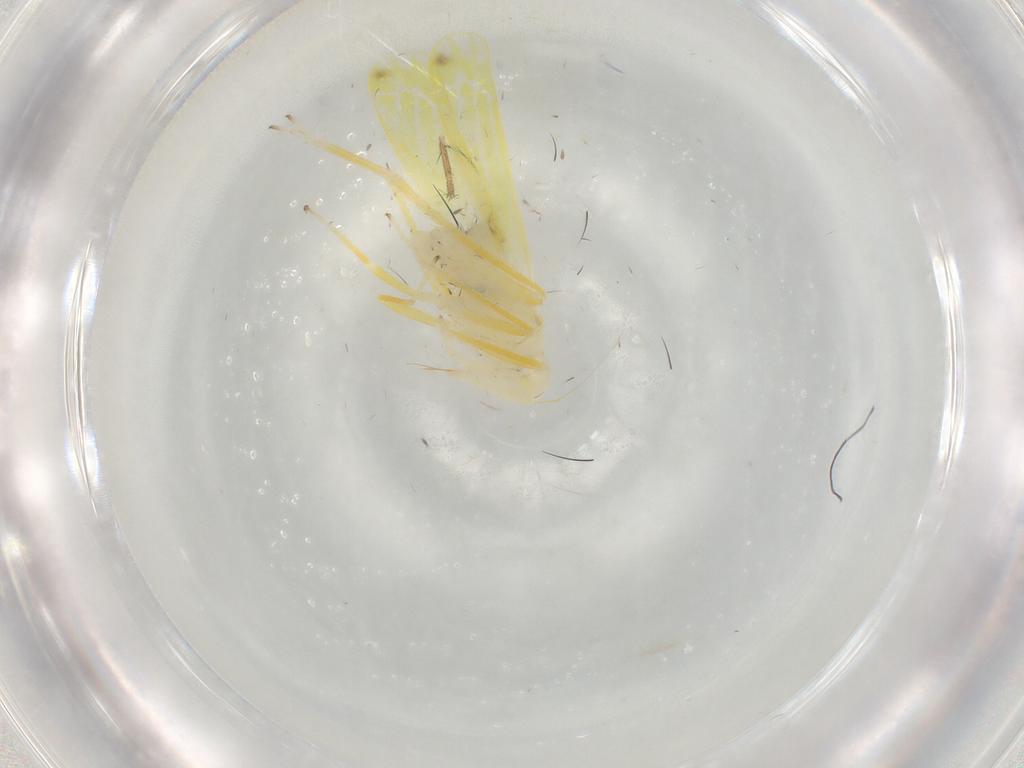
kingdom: Animalia
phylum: Arthropoda
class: Insecta
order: Hemiptera
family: Cicadellidae
